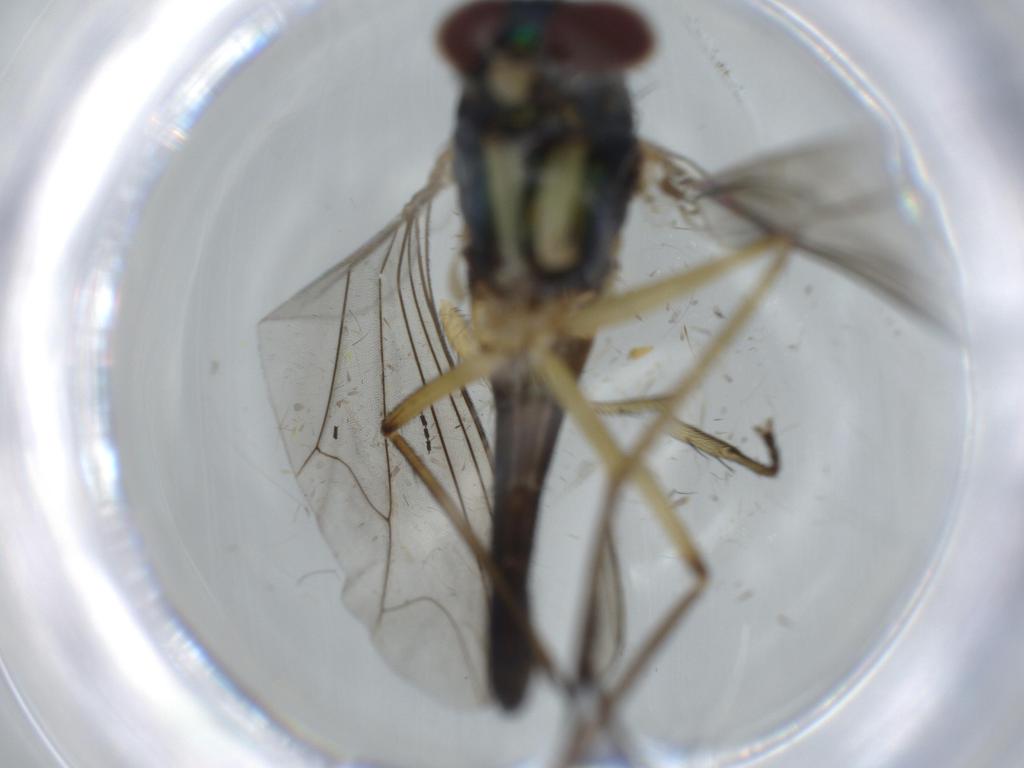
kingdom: Animalia
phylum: Arthropoda
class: Insecta
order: Diptera
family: Dolichopodidae
